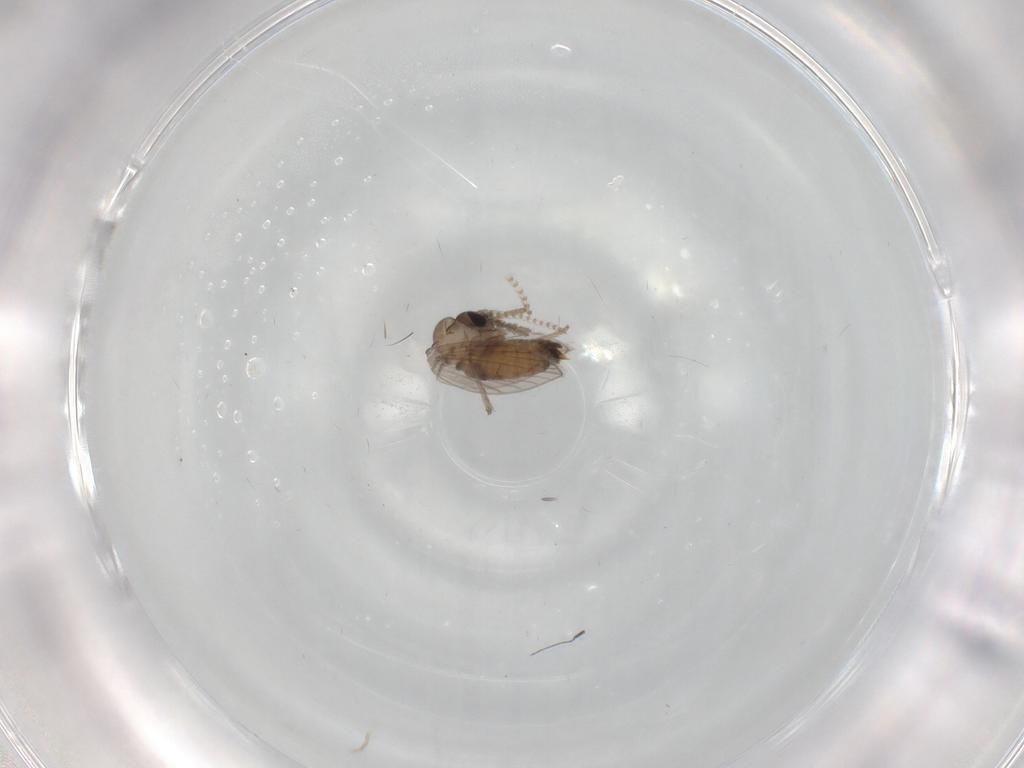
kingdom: Animalia
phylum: Arthropoda
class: Insecta
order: Diptera
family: Psychodidae
